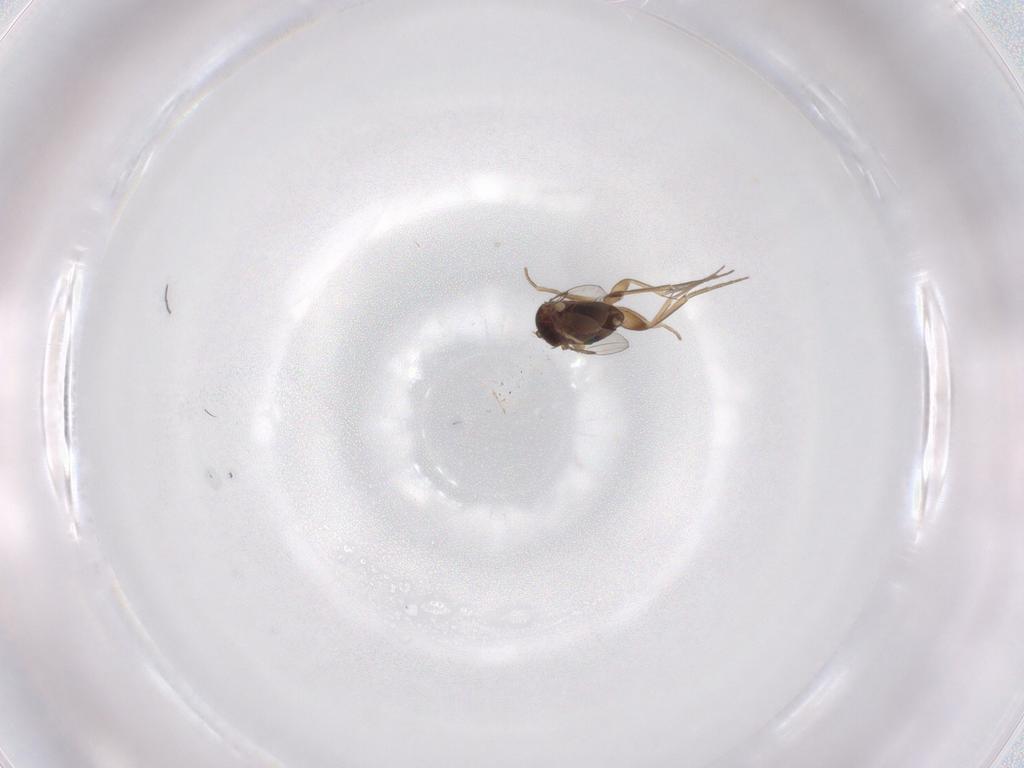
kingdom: Animalia
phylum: Arthropoda
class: Insecta
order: Diptera
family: Phoridae
